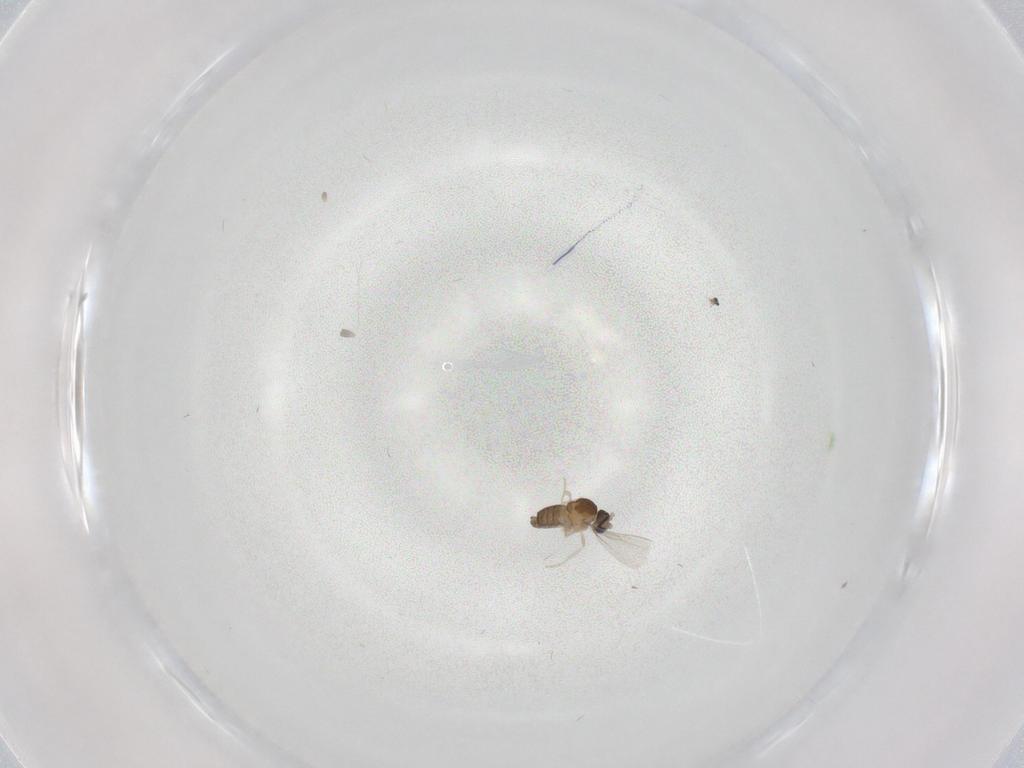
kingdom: Animalia
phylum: Arthropoda
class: Insecta
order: Diptera
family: Cecidomyiidae
